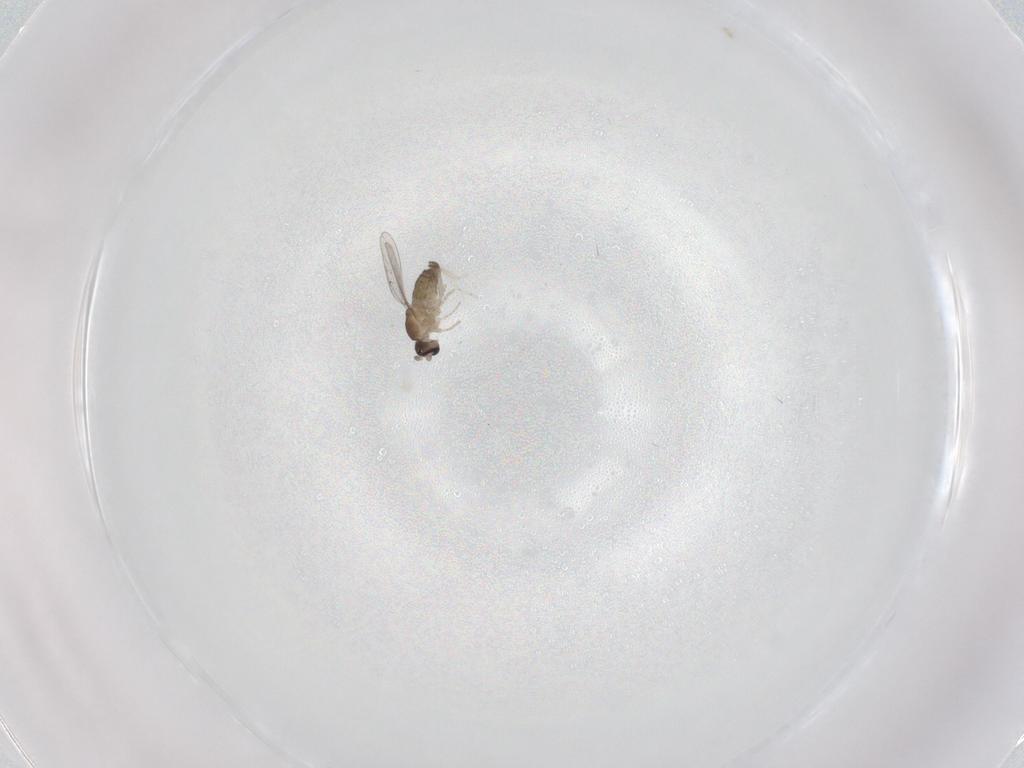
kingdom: Animalia
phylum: Arthropoda
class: Insecta
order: Diptera
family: Cecidomyiidae
